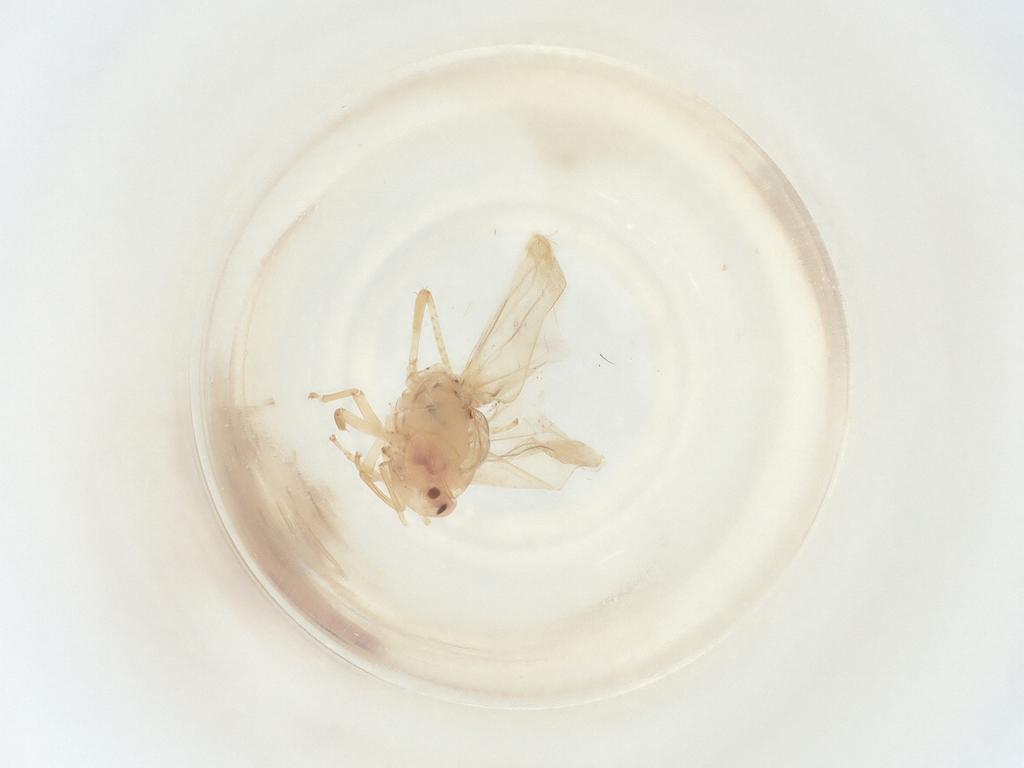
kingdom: Animalia
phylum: Arthropoda
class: Insecta
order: Hemiptera
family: Cicadellidae
